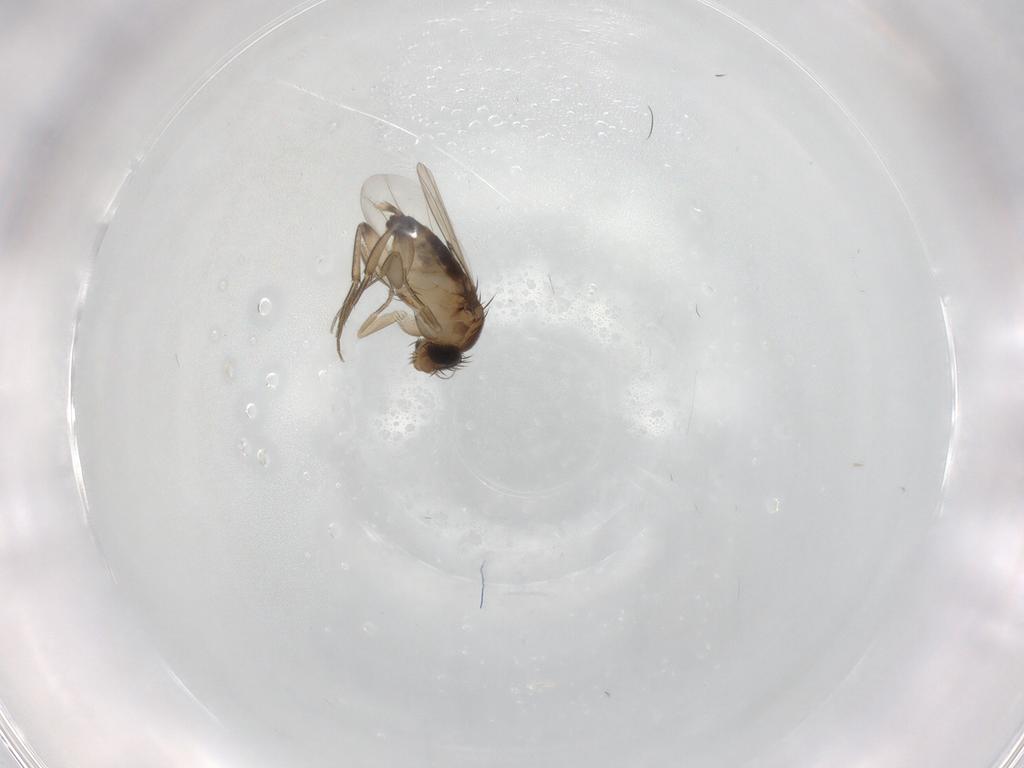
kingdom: Animalia
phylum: Arthropoda
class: Insecta
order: Diptera
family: Phoridae
